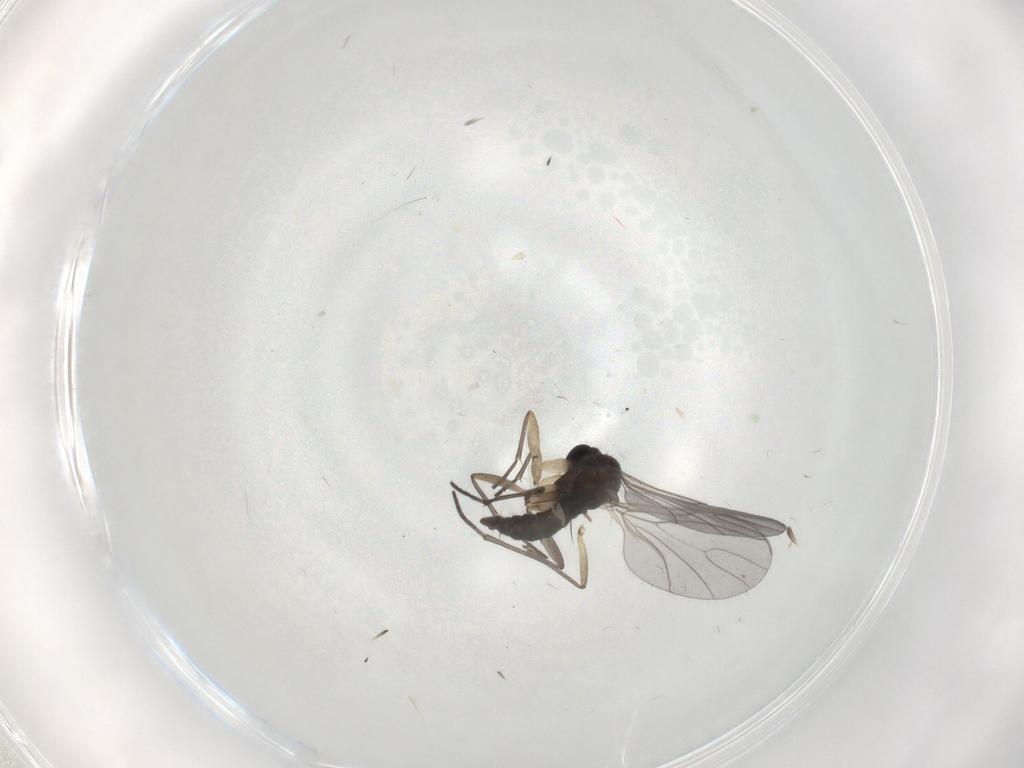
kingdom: Animalia
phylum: Arthropoda
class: Insecta
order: Diptera
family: Sciaridae
